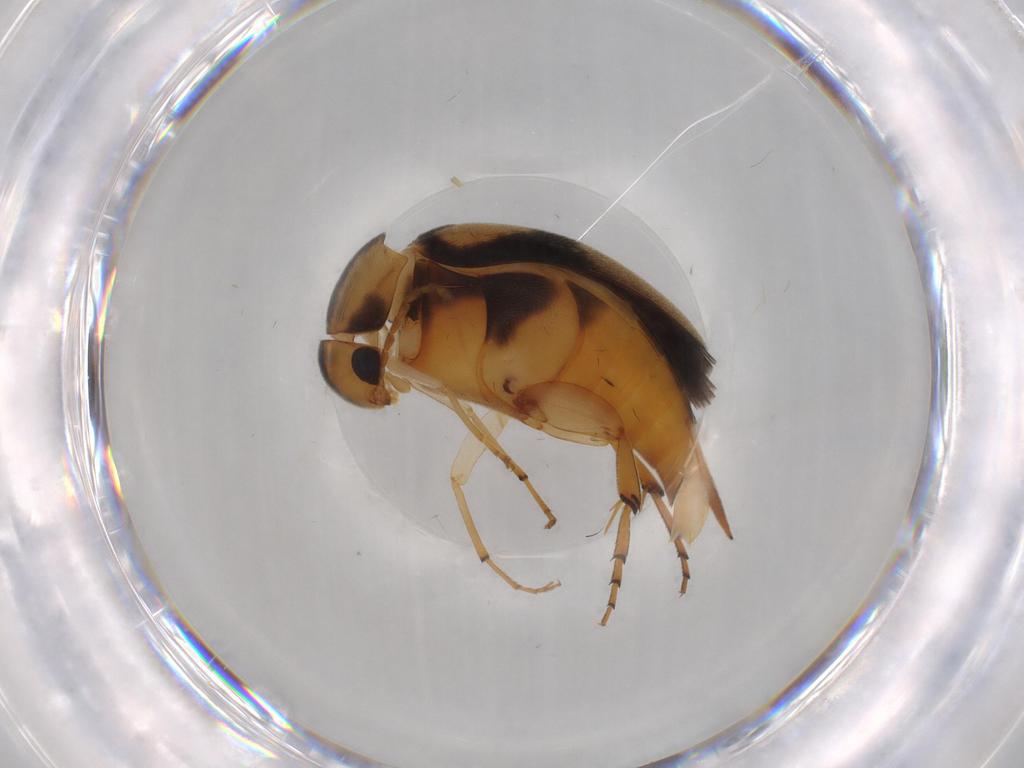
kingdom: Animalia
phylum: Arthropoda
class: Insecta
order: Coleoptera
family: Mordellidae
